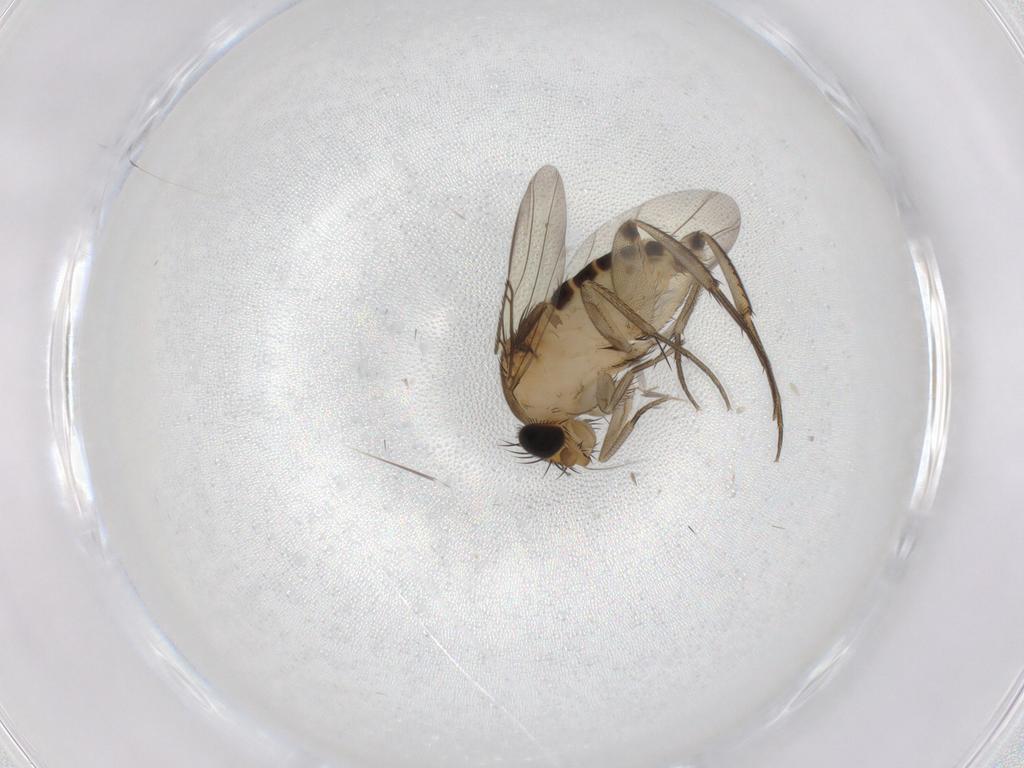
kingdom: Animalia
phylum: Arthropoda
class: Insecta
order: Diptera
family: Phoridae
